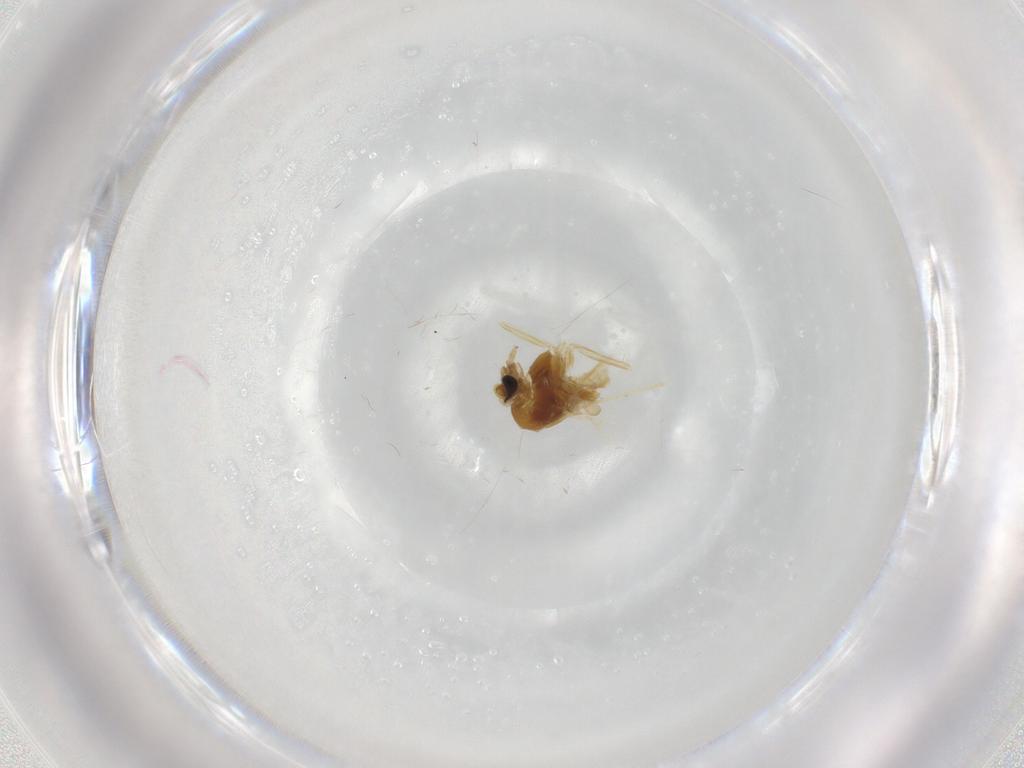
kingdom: Animalia
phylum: Arthropoda
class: Insecta
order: Diptera
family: Chironomidae
